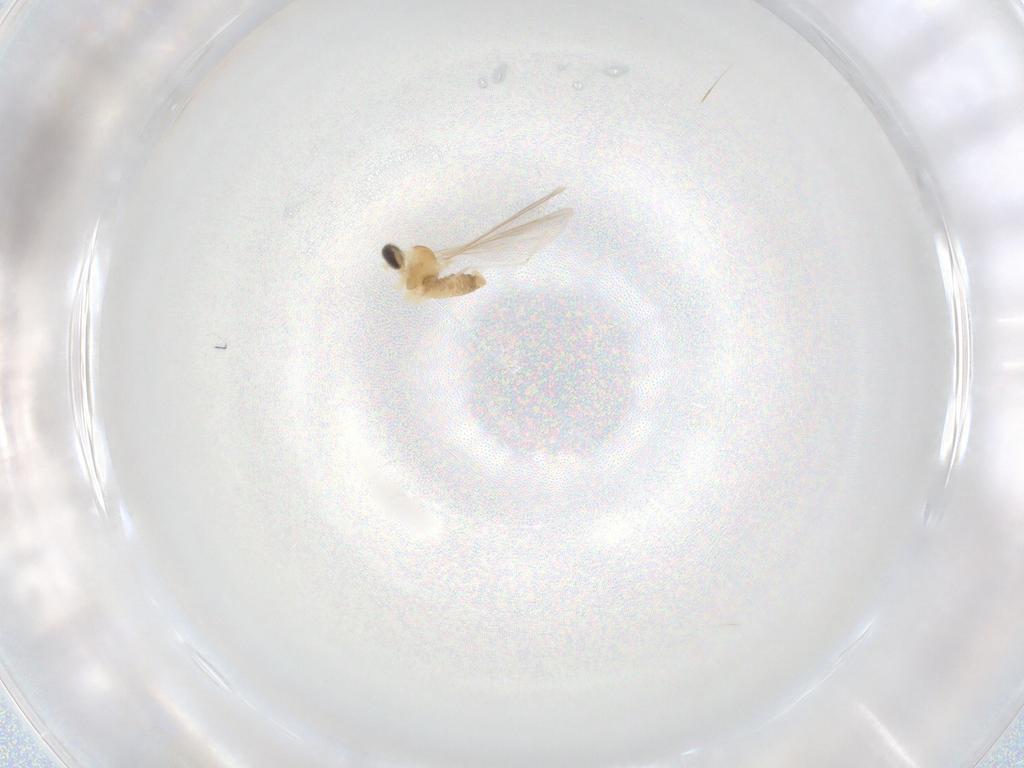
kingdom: Animalia
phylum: Arthropoda
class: Insecta
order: Diptera
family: Cecidomyiidae
